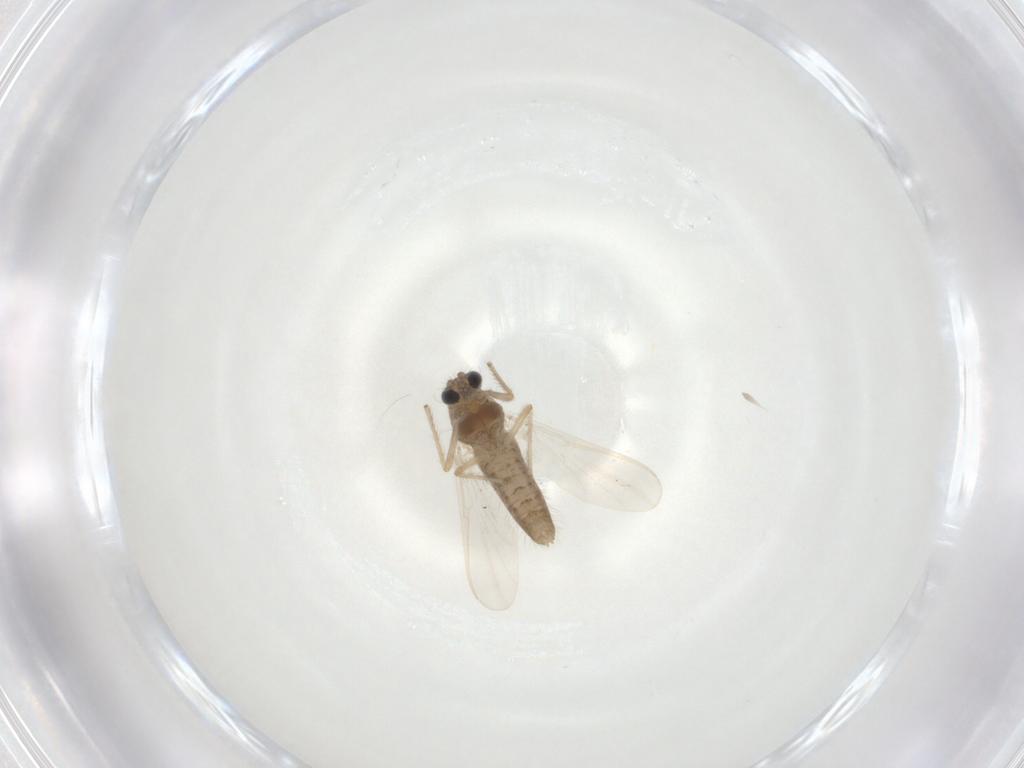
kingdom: Animalia
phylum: Arthropoda
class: Insecta
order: Diptera
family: Chironomidae
